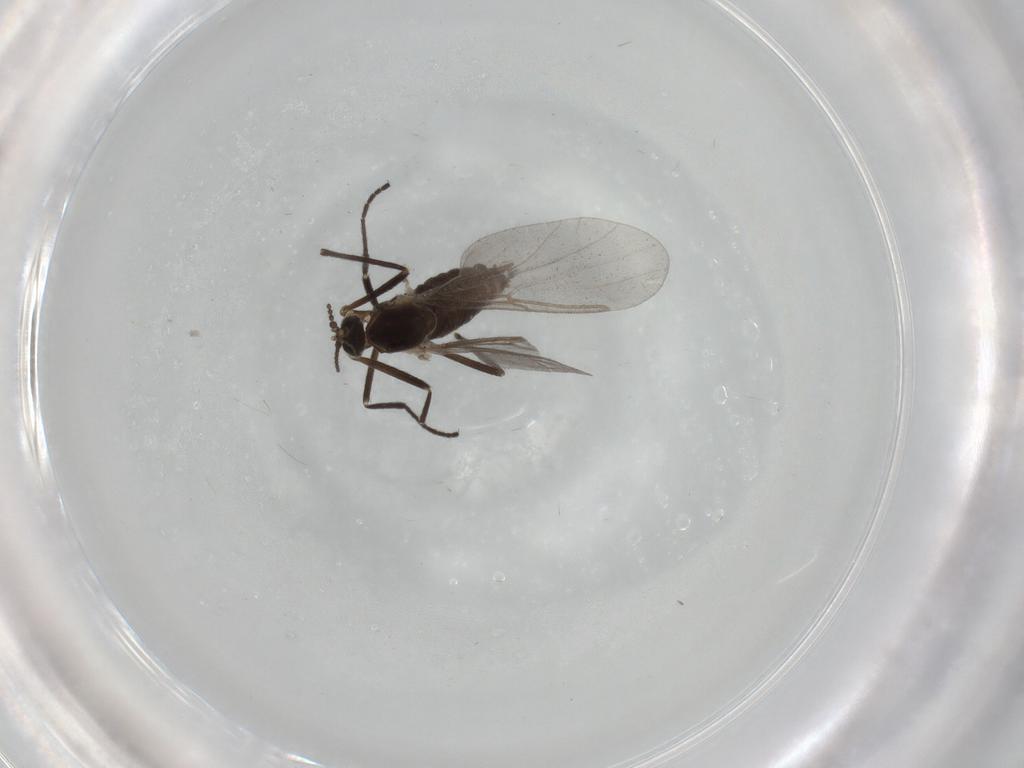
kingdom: Animalia
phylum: Arthropoda
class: Insecta
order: Diptera
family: Cecidomyiidae
